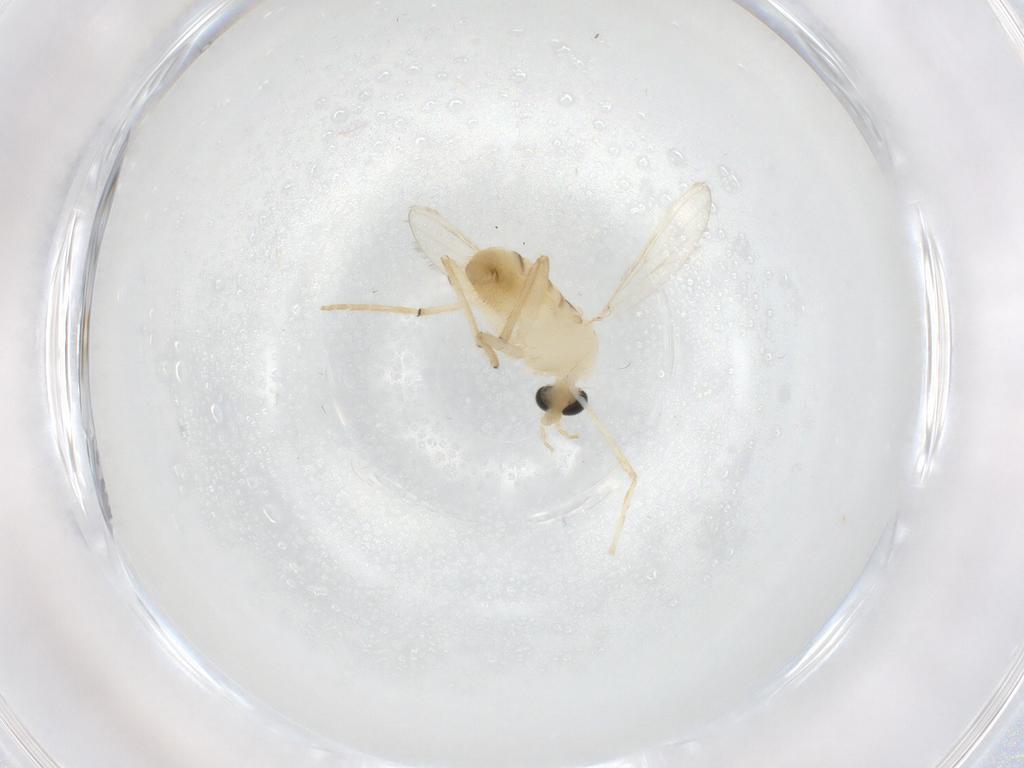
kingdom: Animalia
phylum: Arthropoda
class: Insecta
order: Diptera
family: Chironomidae
